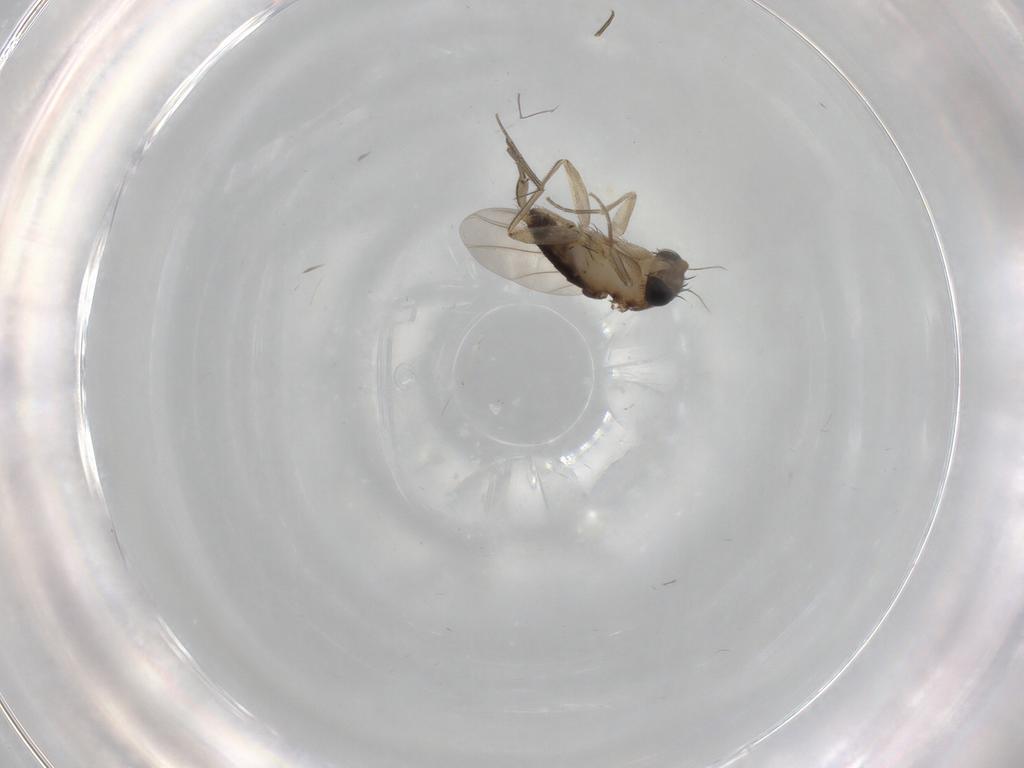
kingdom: Animalia
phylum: Arthropoda
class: Insecta
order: Diptera
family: Phoridae
